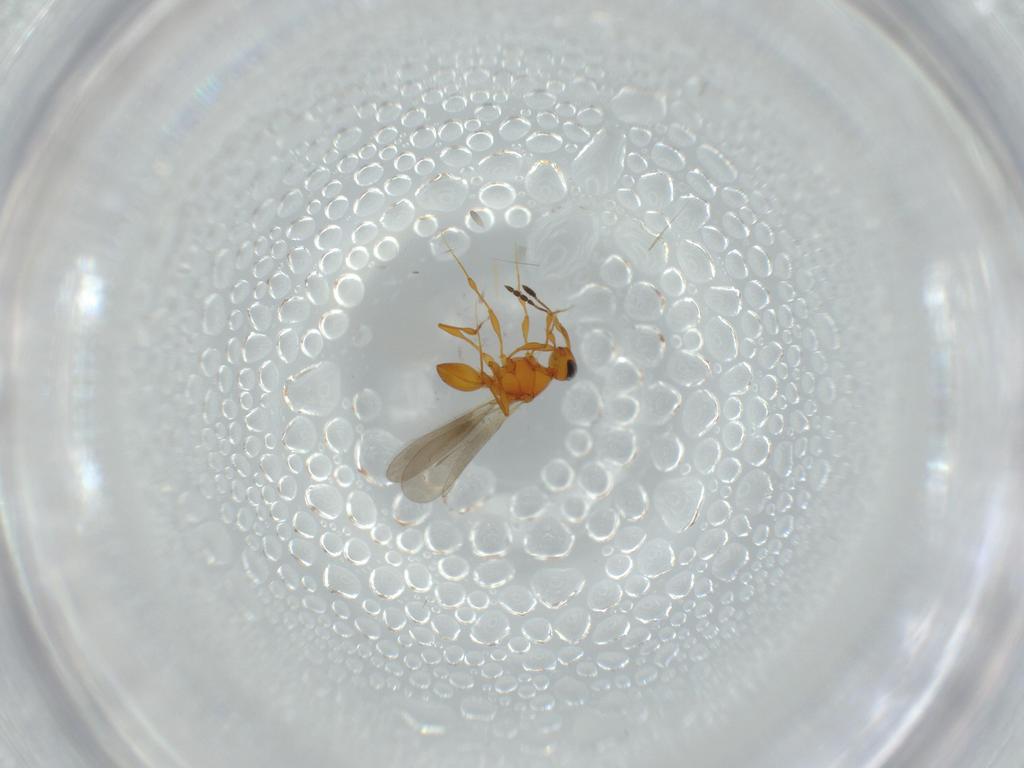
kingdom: Animalia
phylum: Arthropoda
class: Insecta
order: Hymenoptera
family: Platygastridae
